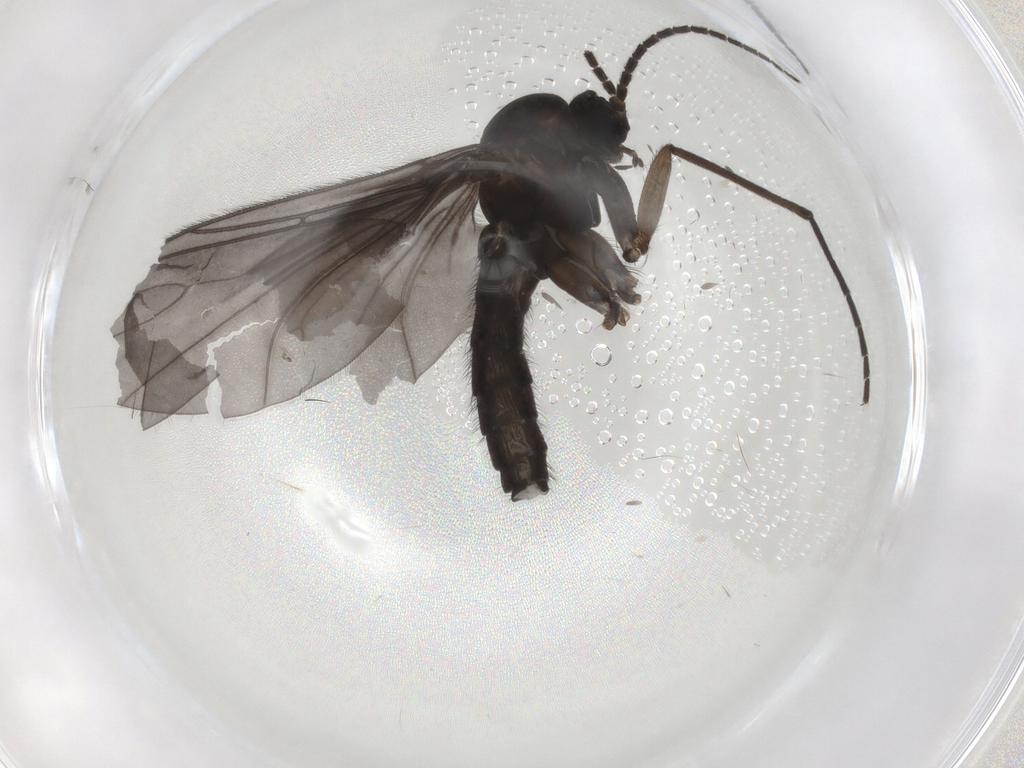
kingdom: Animalia
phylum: Arthropoda
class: Insecta
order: Diptera
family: Sciaridae
